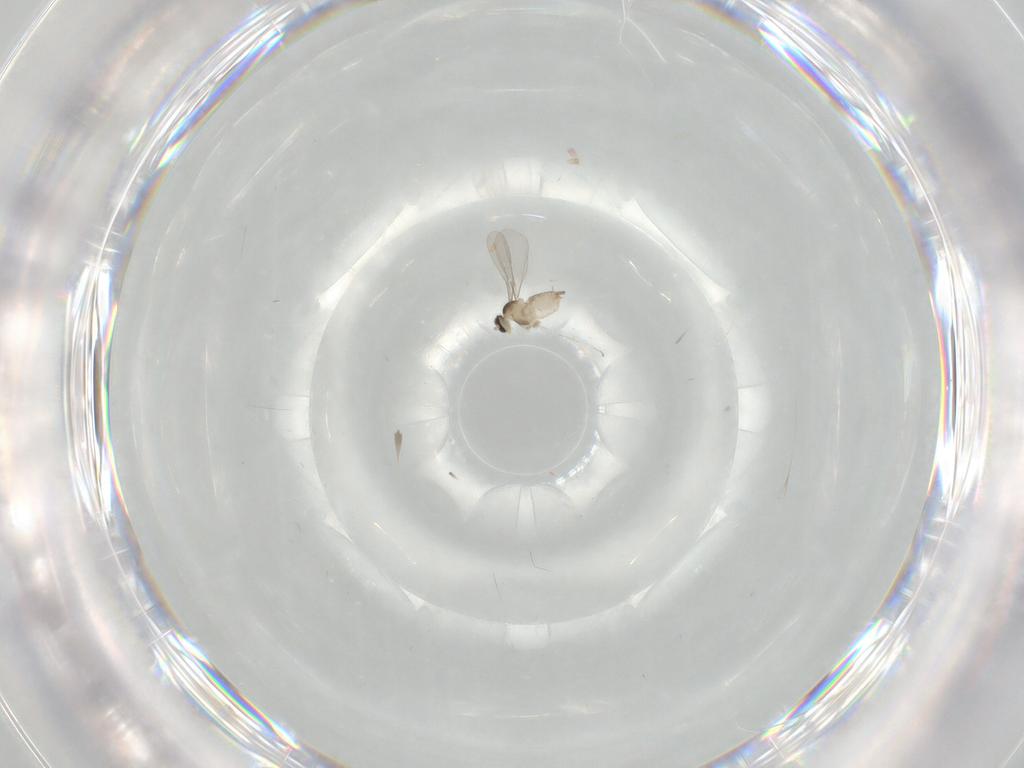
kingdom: Animalia
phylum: Arthropoda
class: Insecta
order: Diptera
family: Cecidomyiidae
